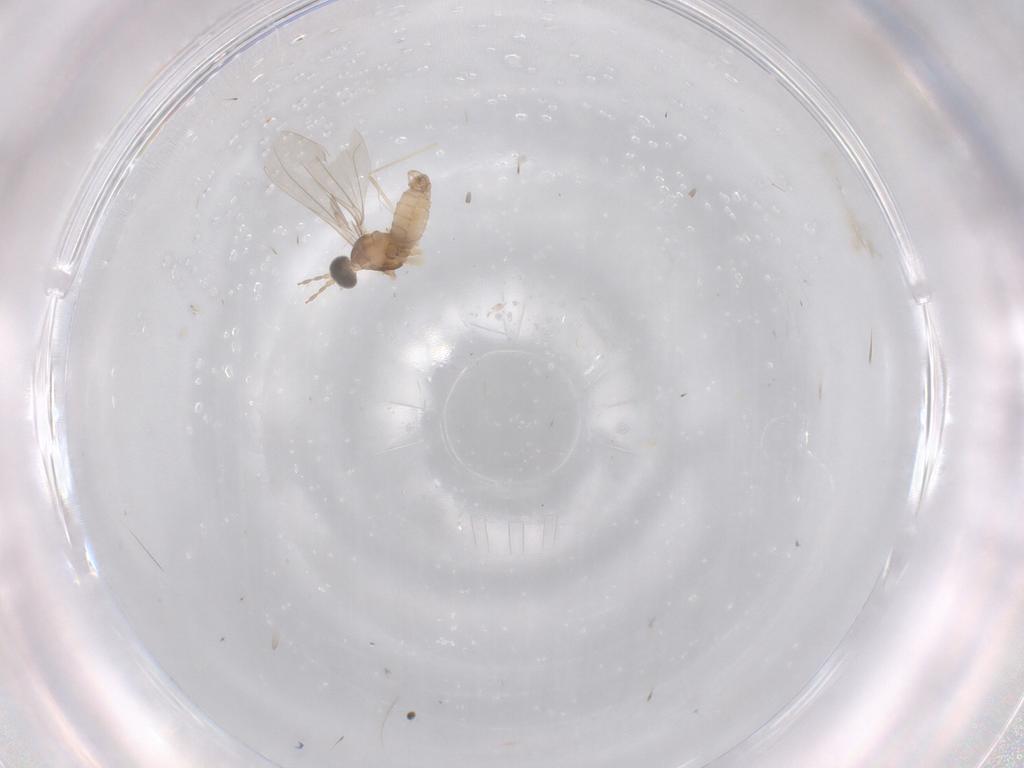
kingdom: Animalia
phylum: Arthropoda
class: Insecta
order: Diptera
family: Cecidomyiidae
